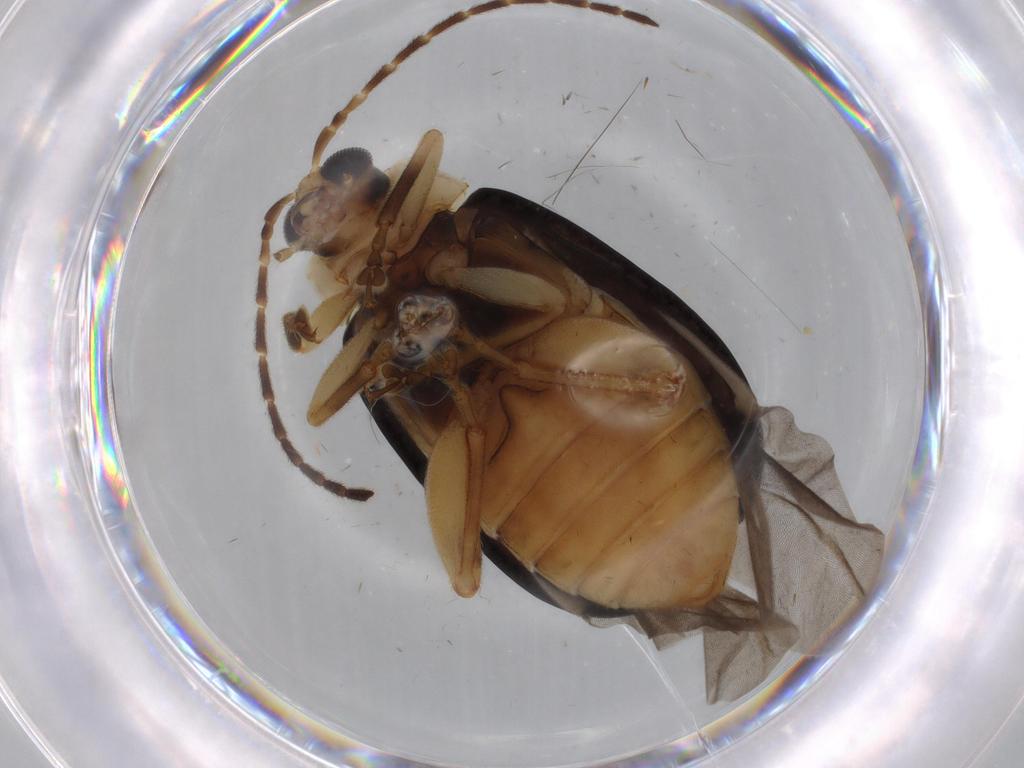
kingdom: Animalia
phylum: Arthropoda
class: Insecta
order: Coleoptera
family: Chrysomelidae
